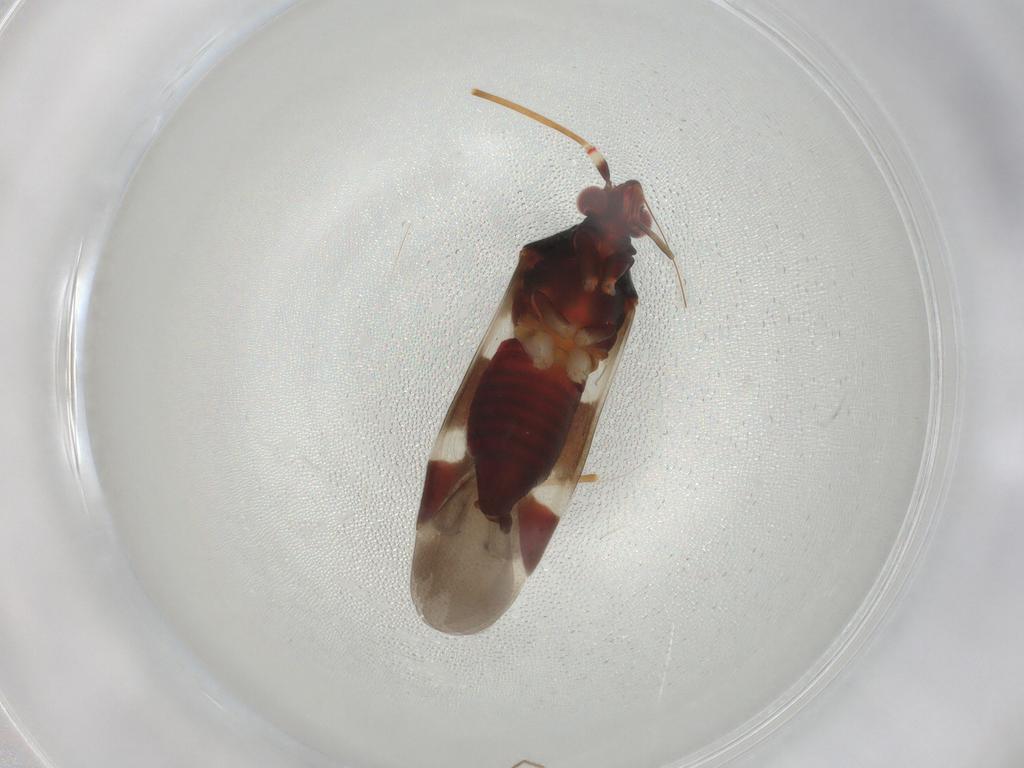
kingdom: Animalia
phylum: Arthropoda
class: Insecta
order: Hemiptera
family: Miridae
